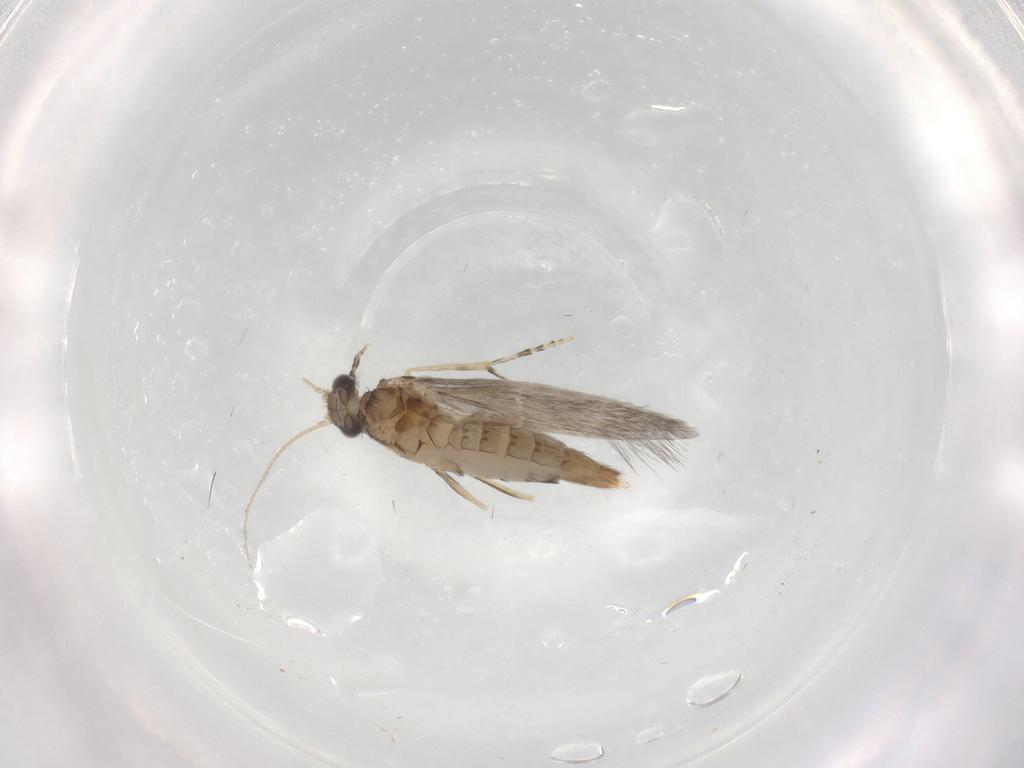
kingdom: Animalia
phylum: Arthropoda
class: Insecta
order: Trichoptera
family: Hydroptilidae
